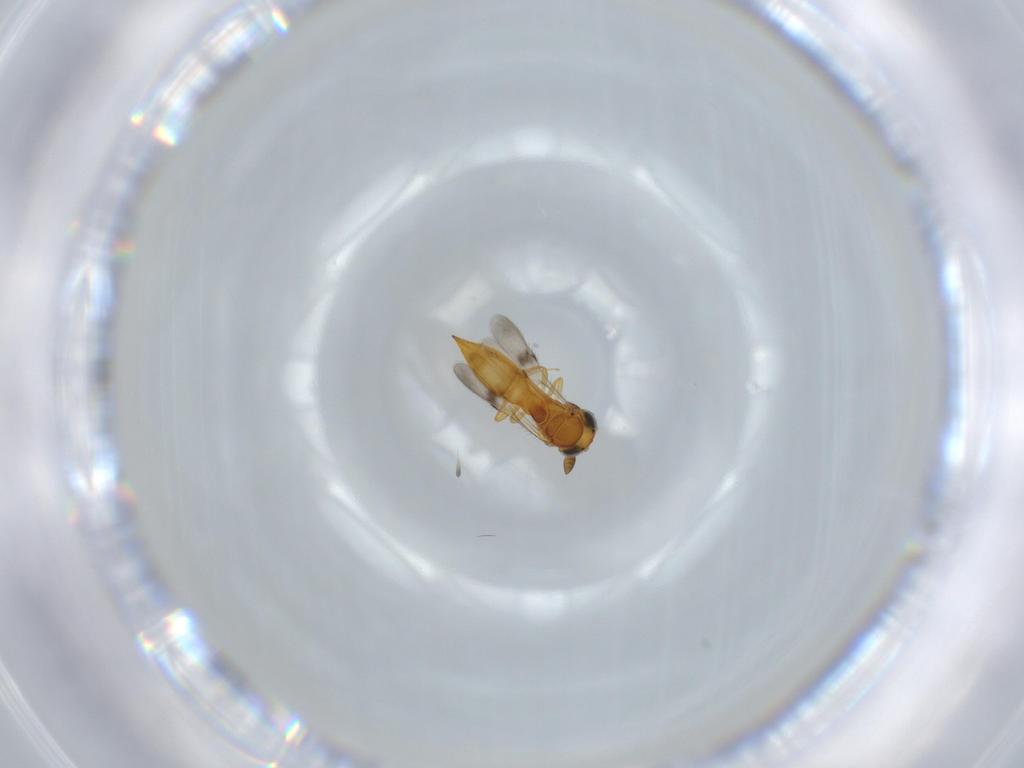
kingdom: Animalia
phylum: Arthropoda
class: Insecta
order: Hymenoptera
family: Scelionidae
